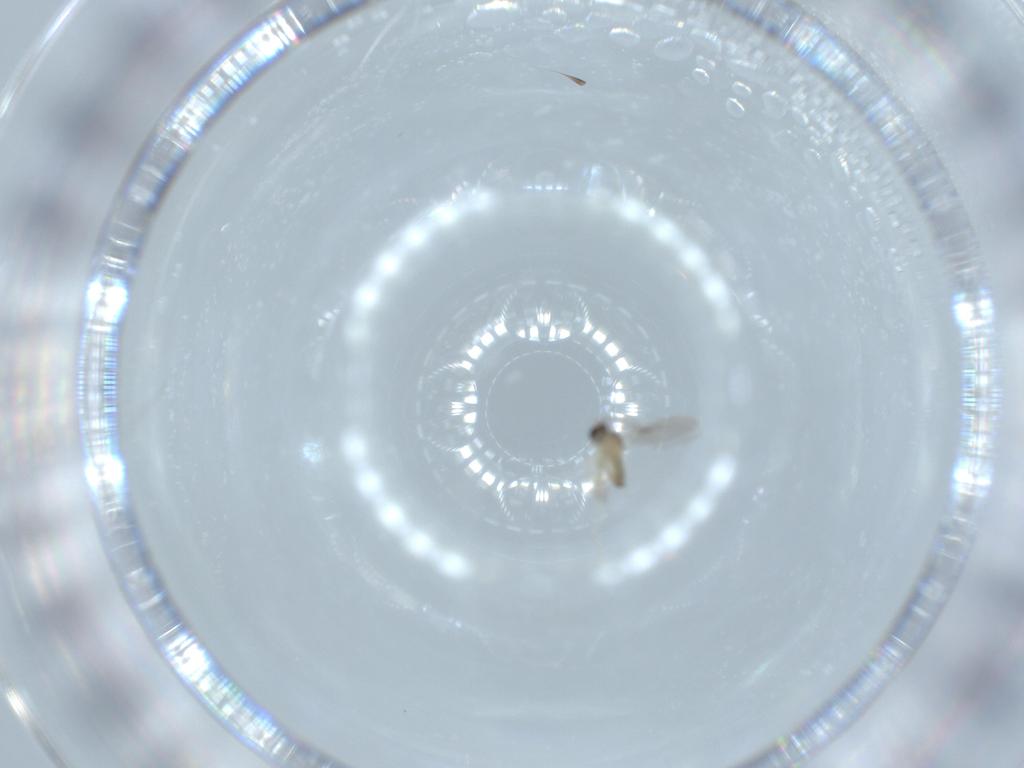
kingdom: Animalia
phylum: Arthropoda
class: Insecta
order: Diptera
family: Cecidomyiidae
